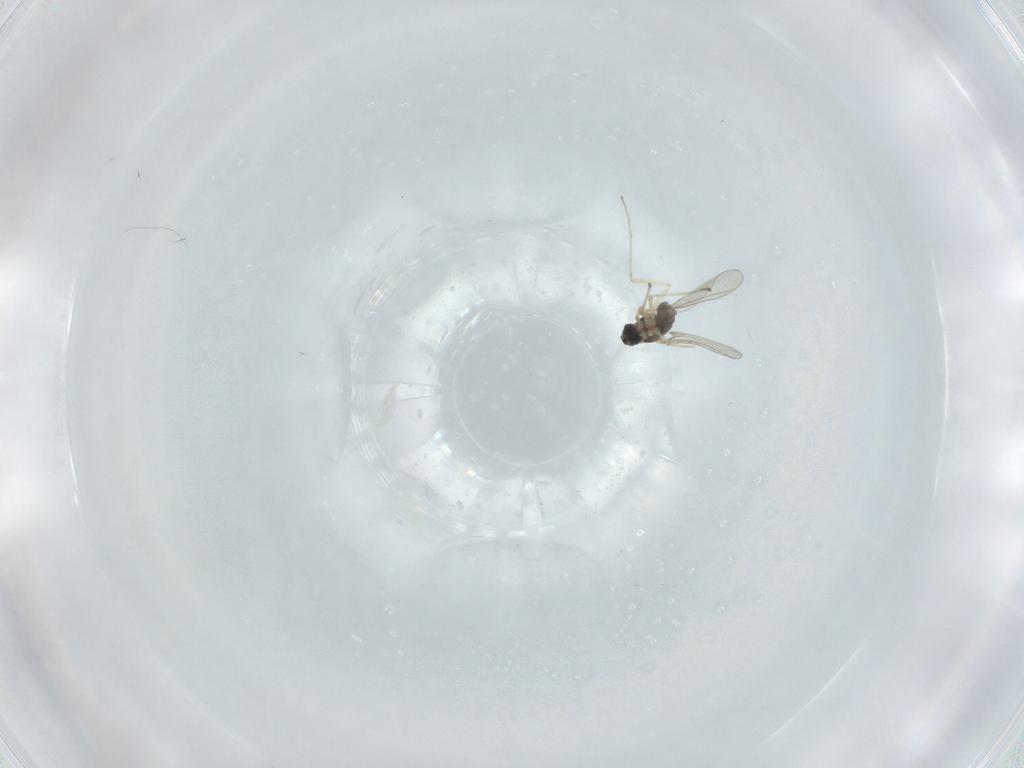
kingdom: Animalia
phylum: Arthropoda
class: Insecta
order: Diptera
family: Cecidomyiidae
